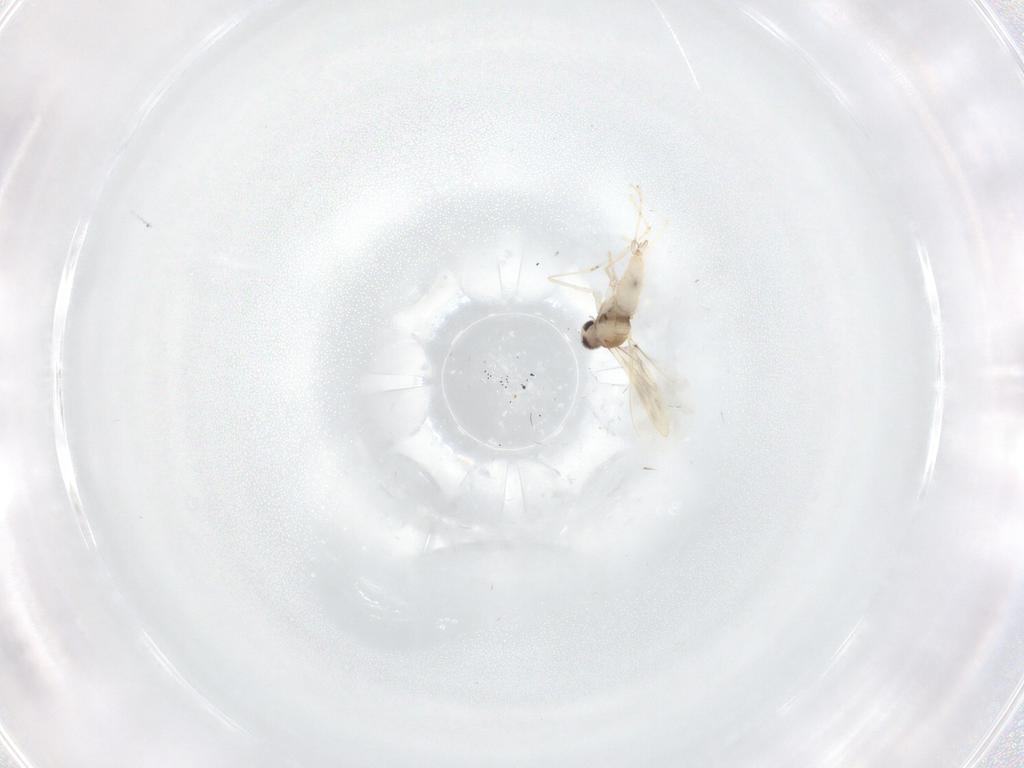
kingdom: Animalia
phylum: Arthropoda
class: Insecta
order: Diptera
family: Cecidomyiidae
